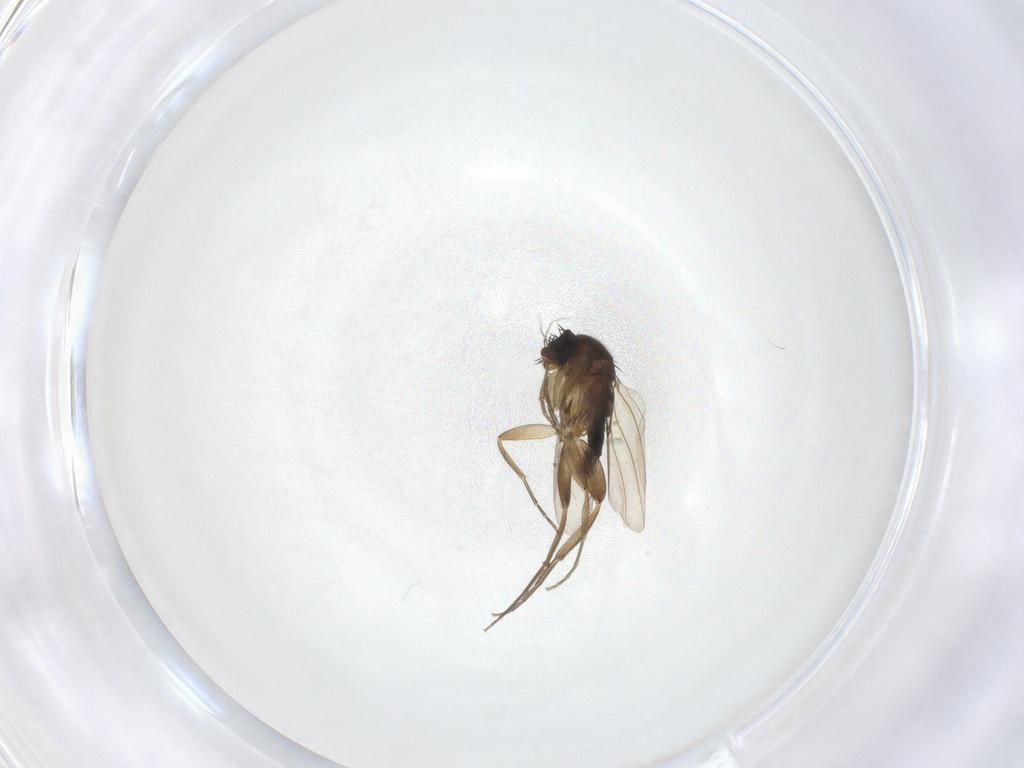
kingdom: Animalia
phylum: Arthropoda
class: Insecta
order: Diptera
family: Phoridae
